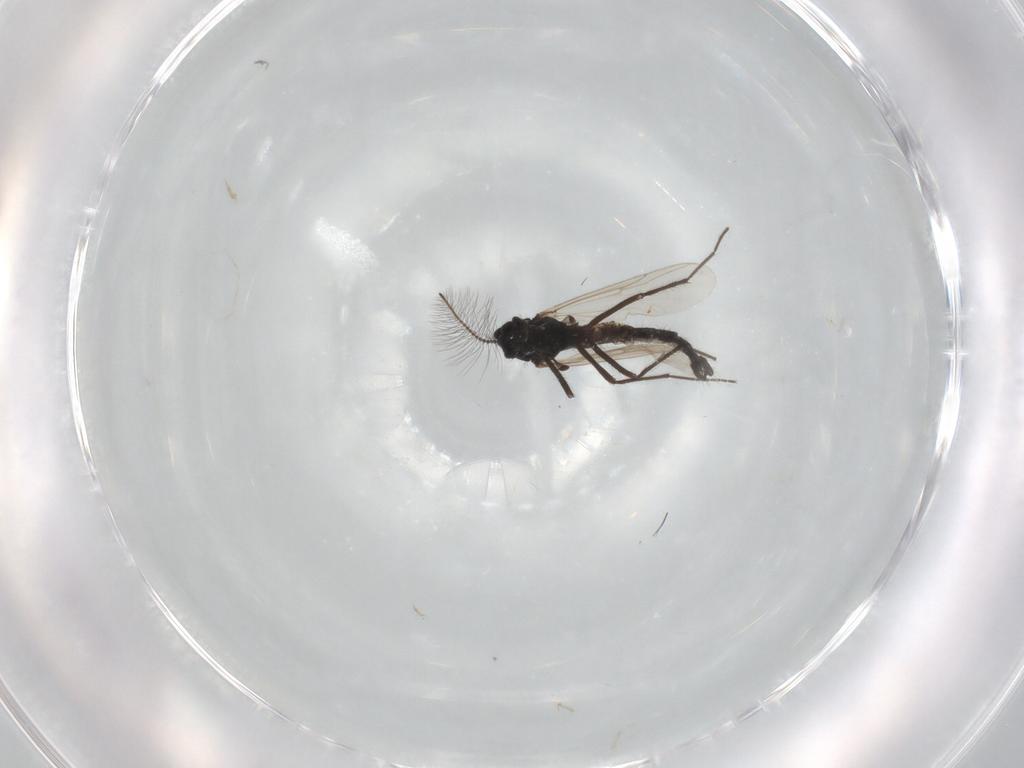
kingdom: Animalia
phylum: Arthropoda
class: Insecta
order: Diptera
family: Chironomidae
